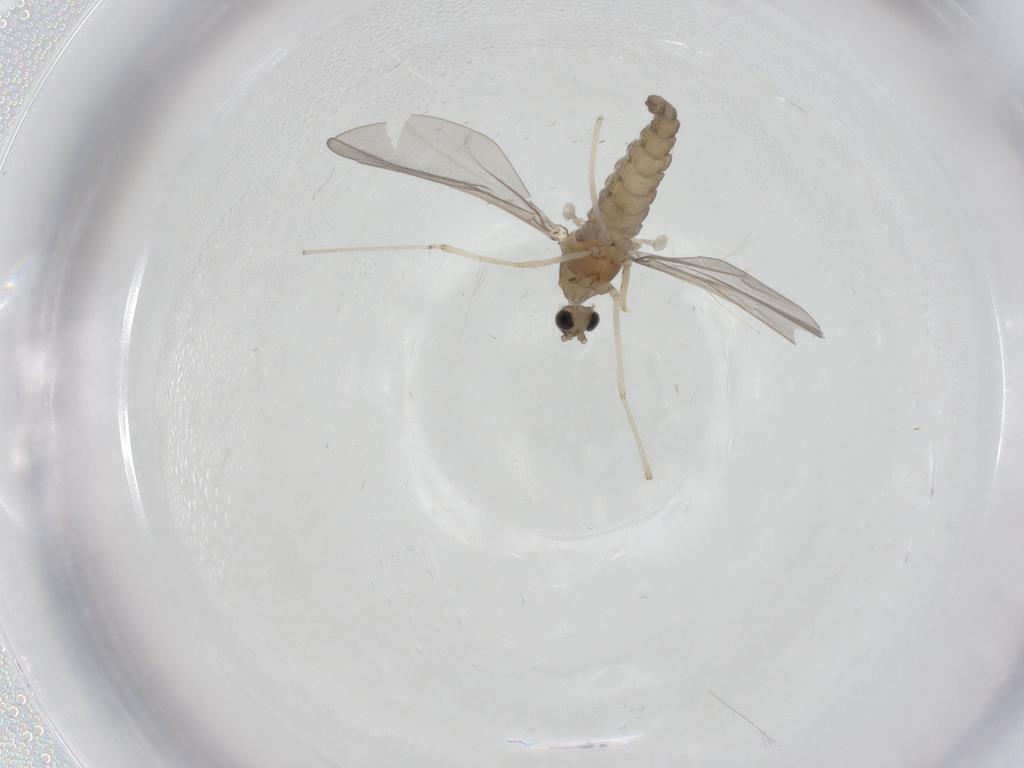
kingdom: Animalia
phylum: Arthropoda
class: Insecta
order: Diptera
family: Cecidomyiidae
